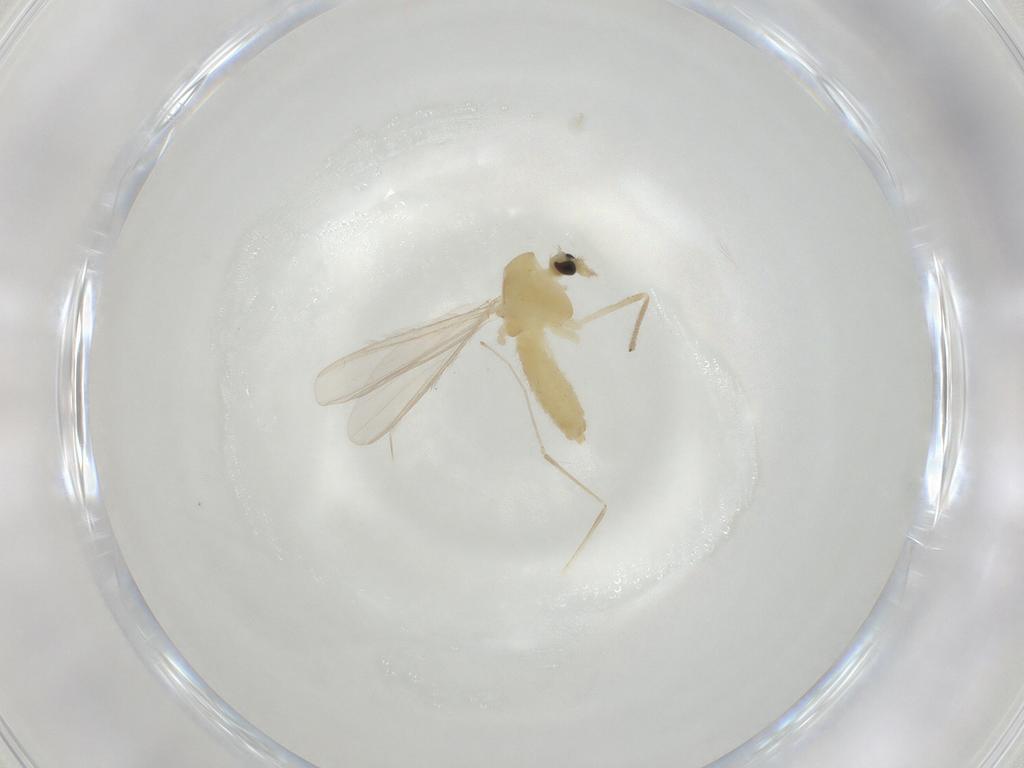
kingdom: Animalia
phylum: Arthropoda
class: Insecta
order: Diptera
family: Chironomidae
